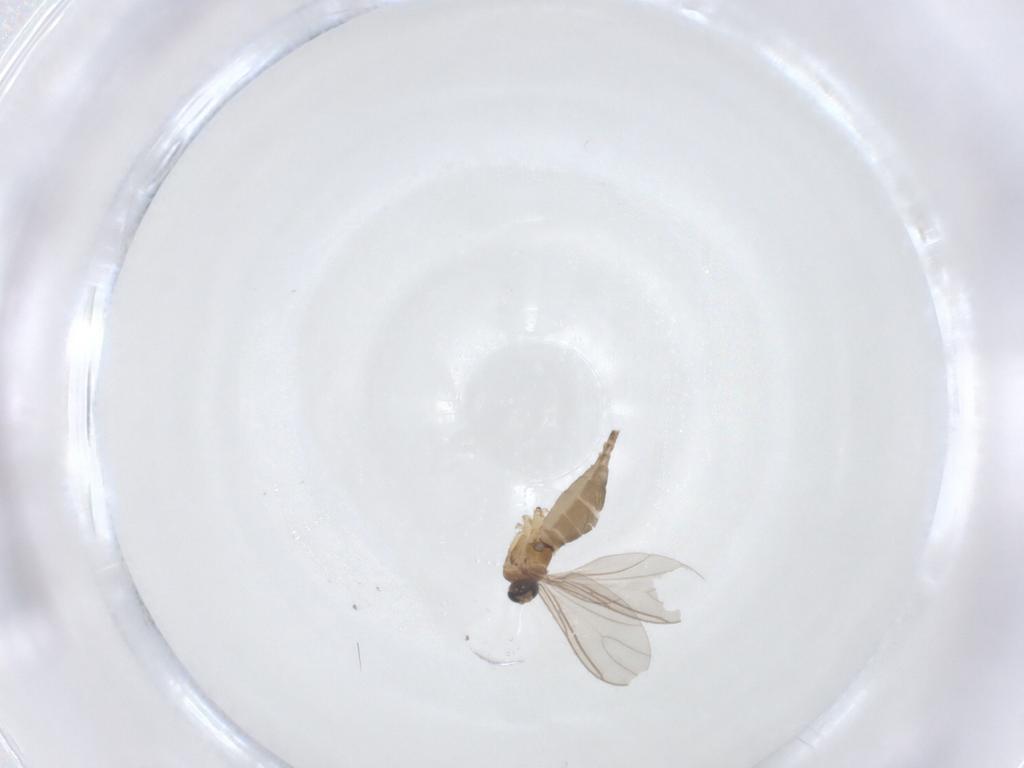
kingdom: Animalia
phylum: Arthropoda
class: Insecta
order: Diptera
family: Sciaridae
